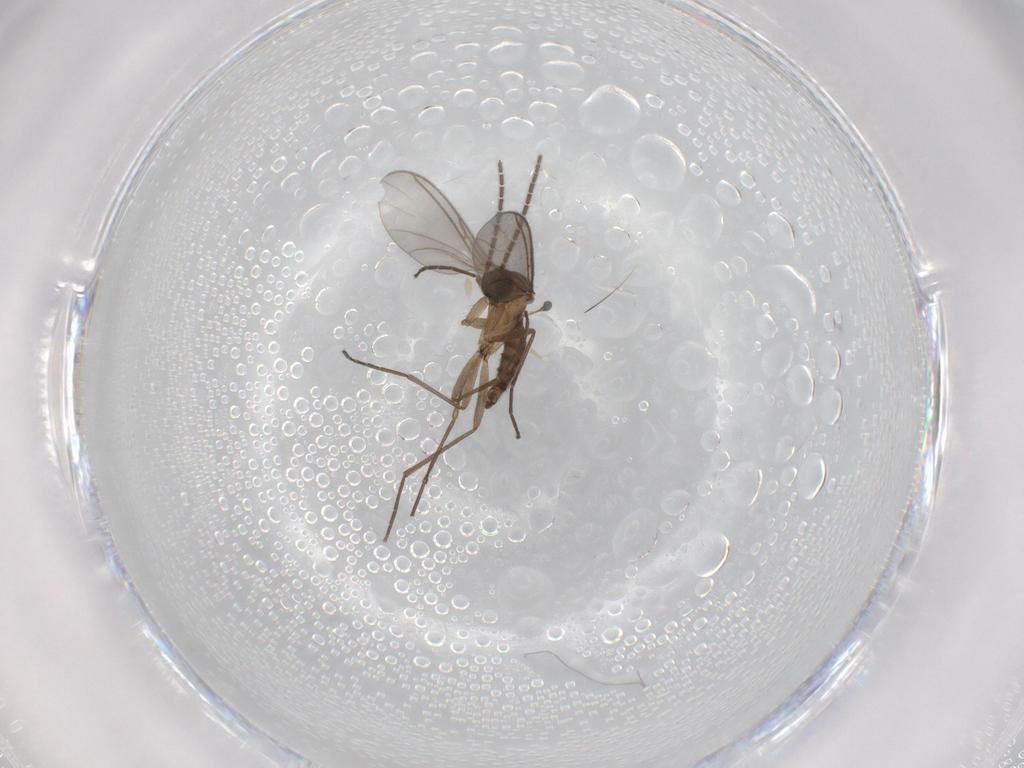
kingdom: Animalia
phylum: Arthropoda
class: Insecta
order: Diptera
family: Sciaridae
